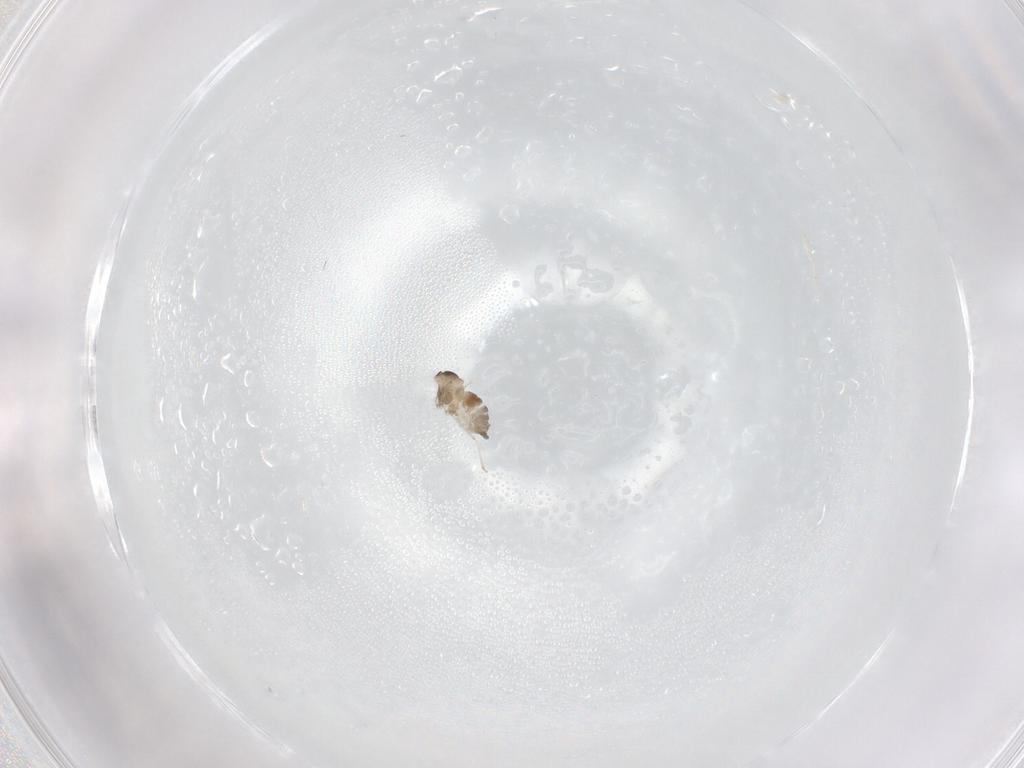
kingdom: Animalia
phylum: Arthropoda
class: Insecta
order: Diptera
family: Cecidomyiidae
